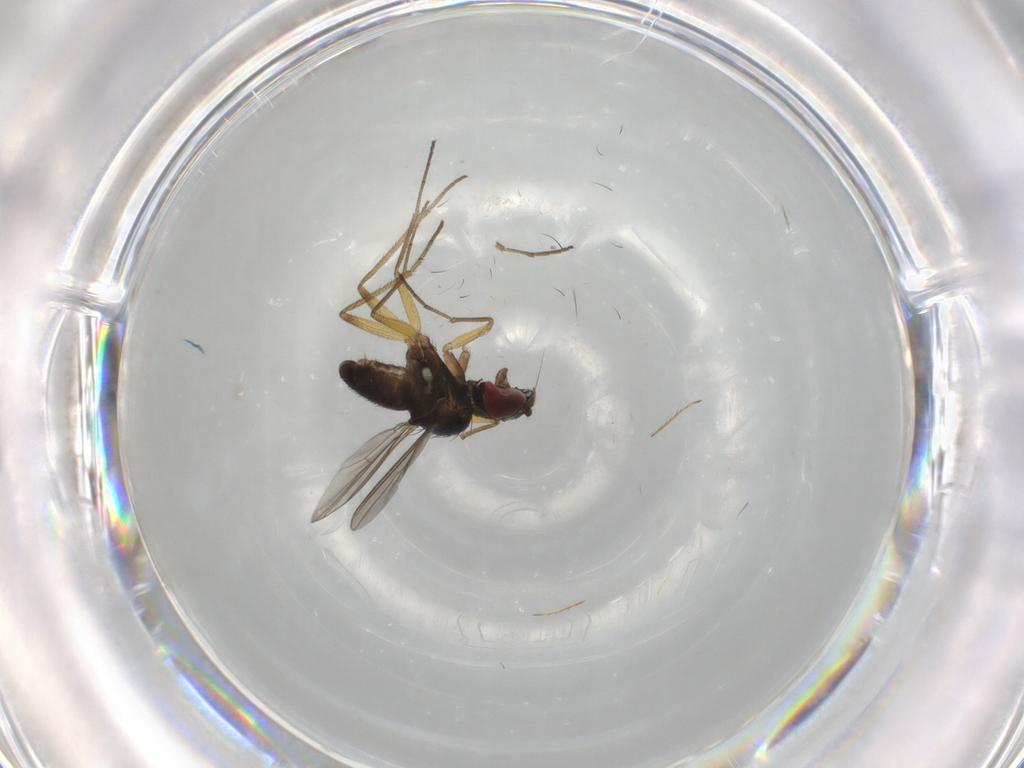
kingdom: Animalia
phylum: Arthropoda
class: Insecta
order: Diptera
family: Dolichopodidae
